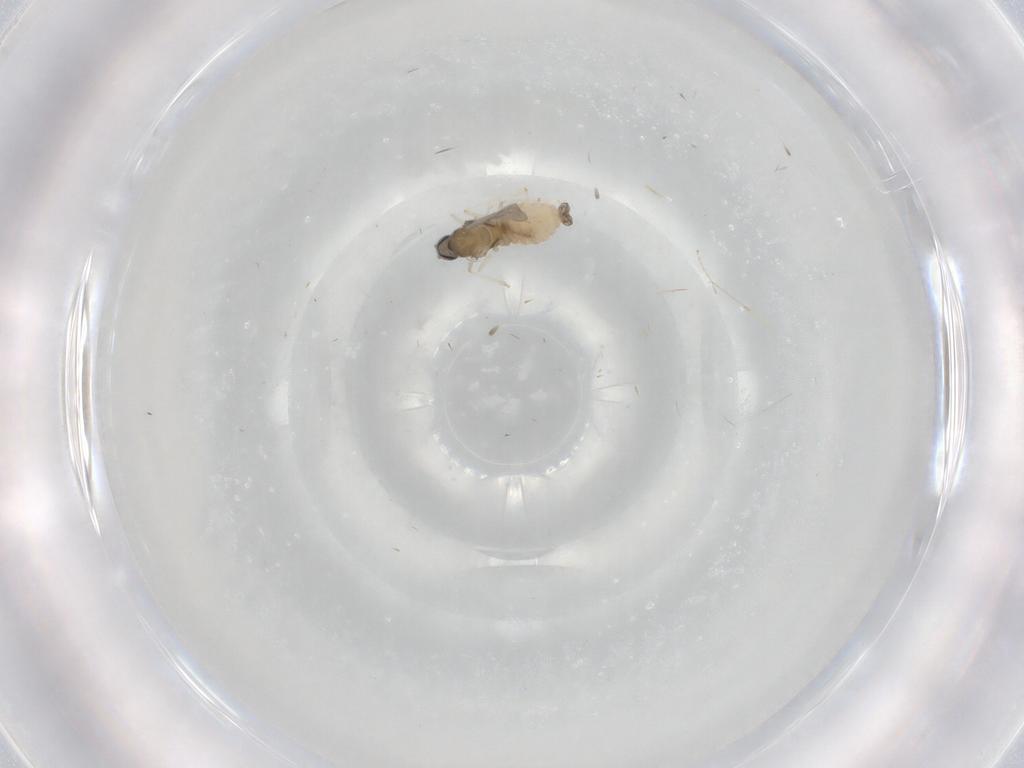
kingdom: Animalia
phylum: Arthropoda
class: Insecta
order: Diptera
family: Cecidomyiidae
